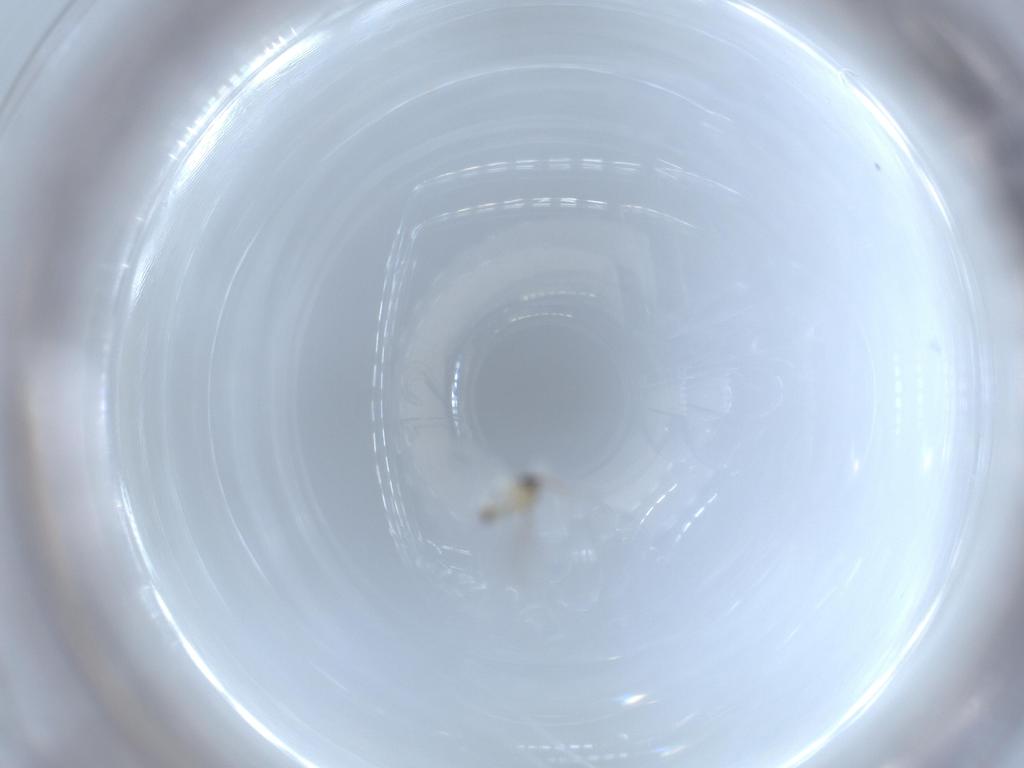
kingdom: Animalia
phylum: Arthropoda
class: Insecta
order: Diptera
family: Cecidomyiidae
